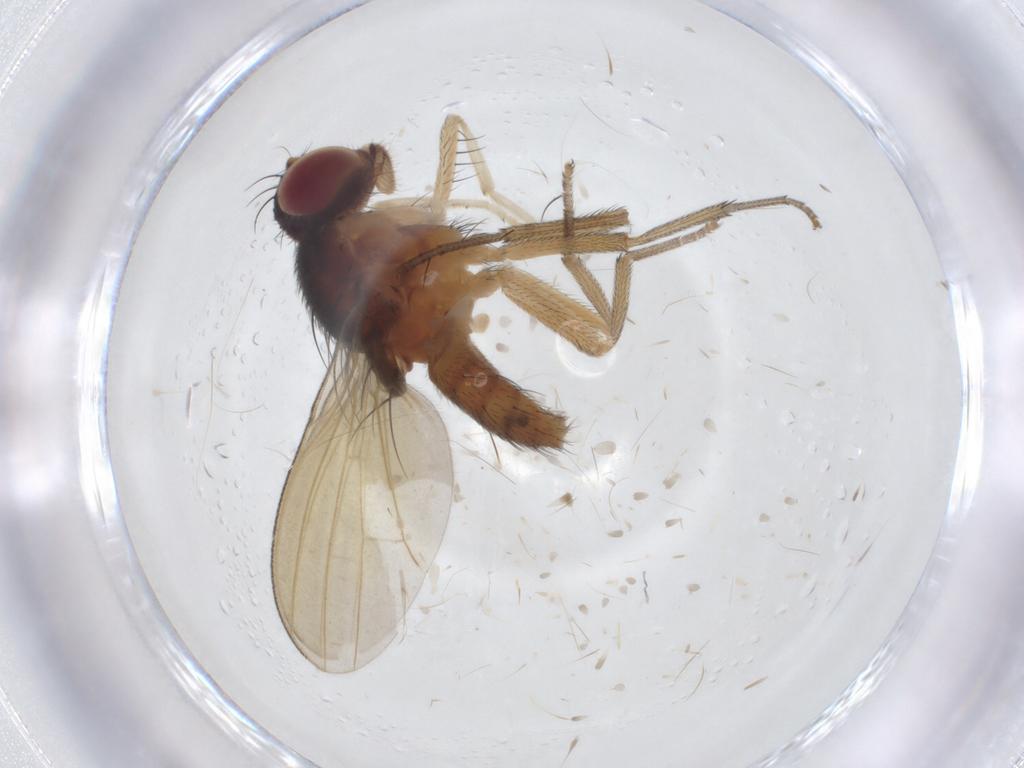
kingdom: Animalia
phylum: Arthropoda
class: Insecta
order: Diptera
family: Lauxaniidae
